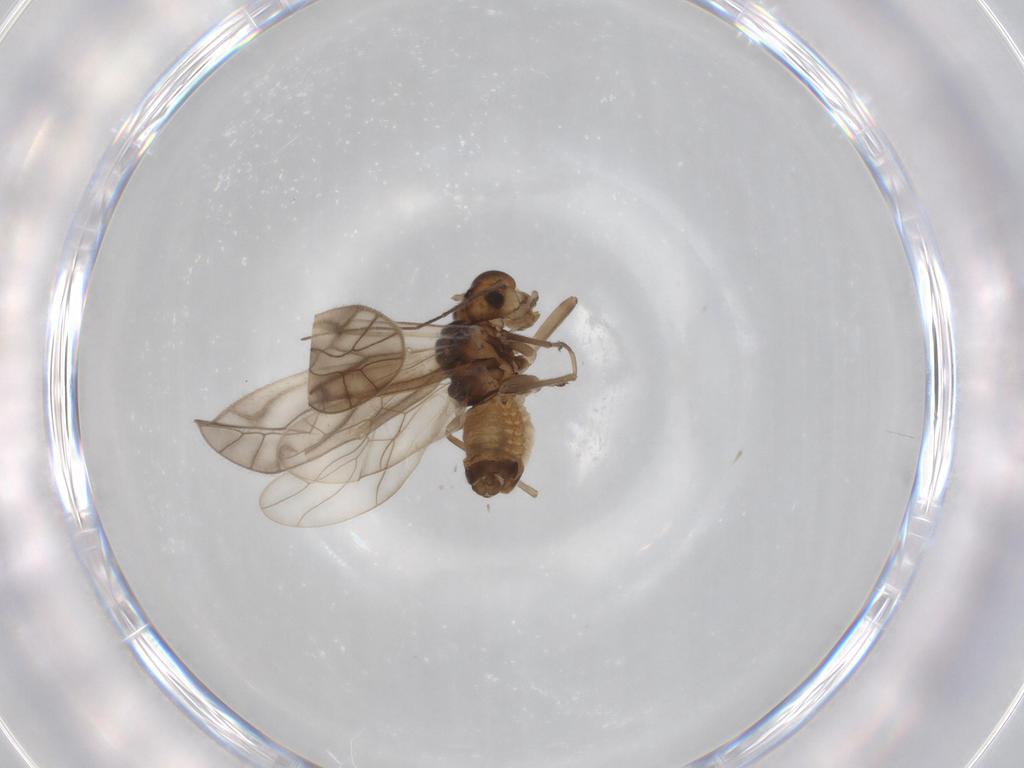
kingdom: Animalia
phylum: Arthropoda
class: Insecta
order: Psocodea
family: Philotarsidae
